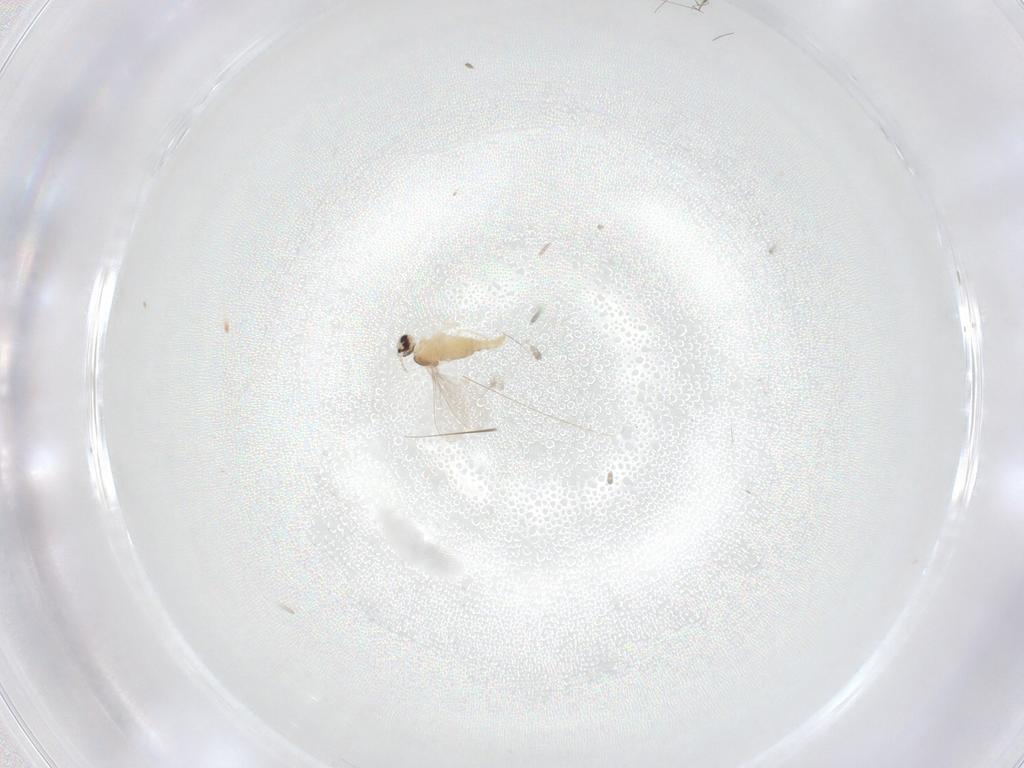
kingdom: Animalia
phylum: Arthropoda
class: Insecta
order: Diptera
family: Cecidomyiidae
